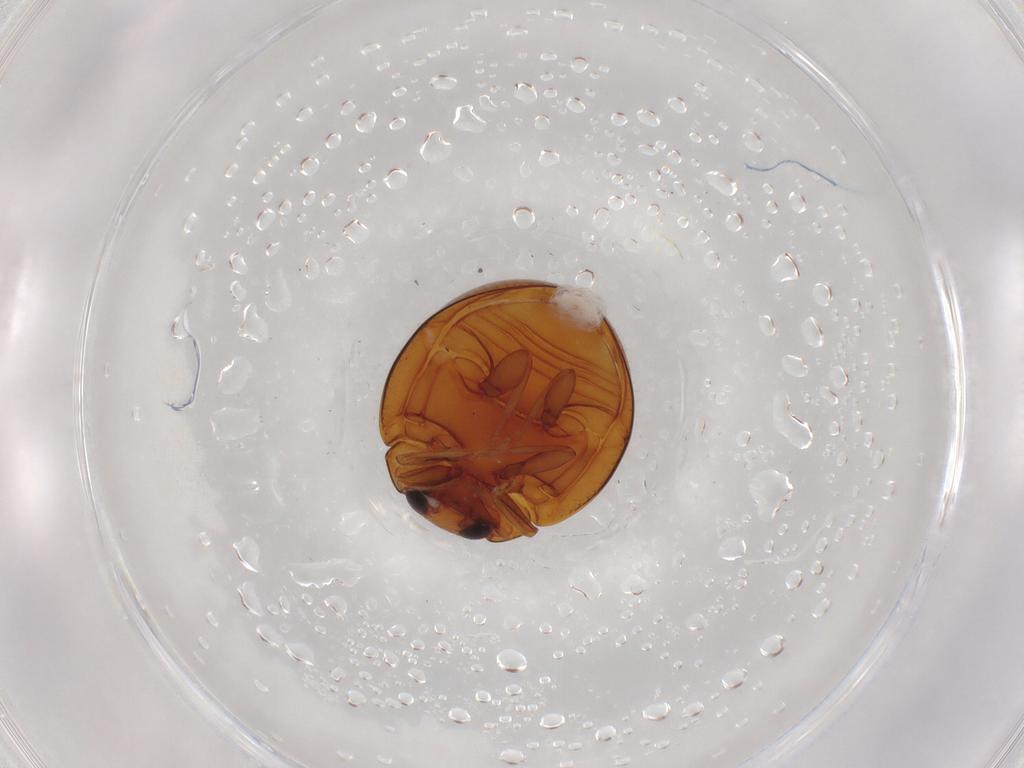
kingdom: Animalia
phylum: Arthropoda
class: Insecta
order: Coleoptera
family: Coccinellidae
